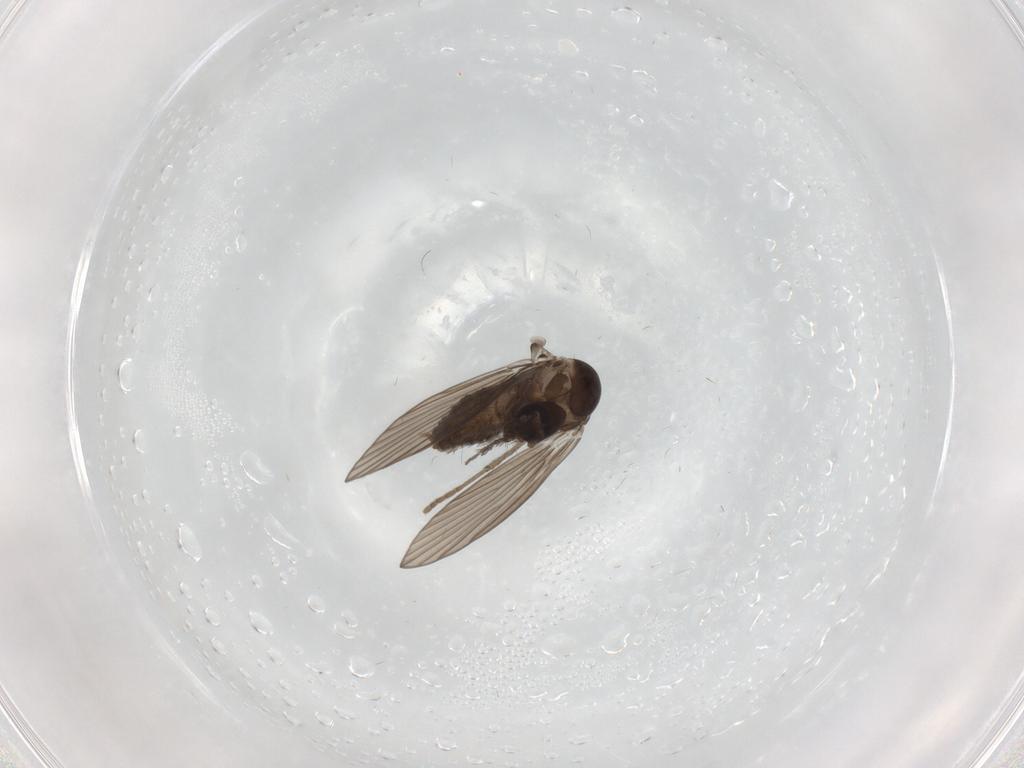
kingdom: Animalia
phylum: Arthropoda
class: Insecta
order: Diptera
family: Psychodidae
